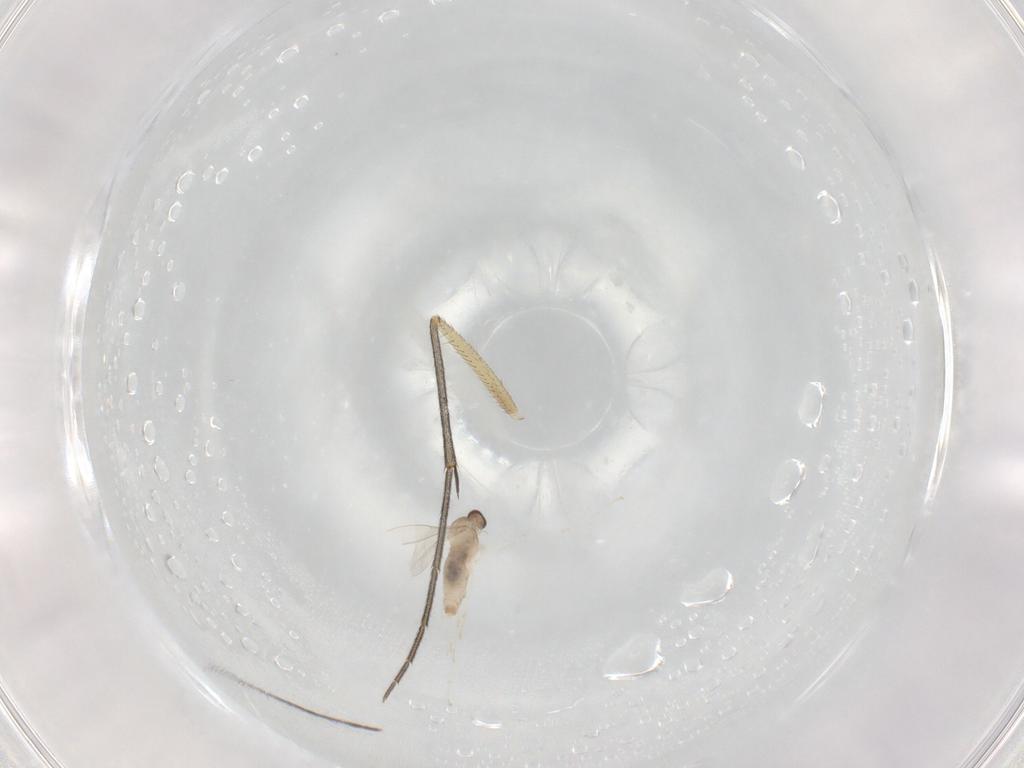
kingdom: Animalia
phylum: Arthropoda
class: Insecta
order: Diptera
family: Cecidomyiidae
